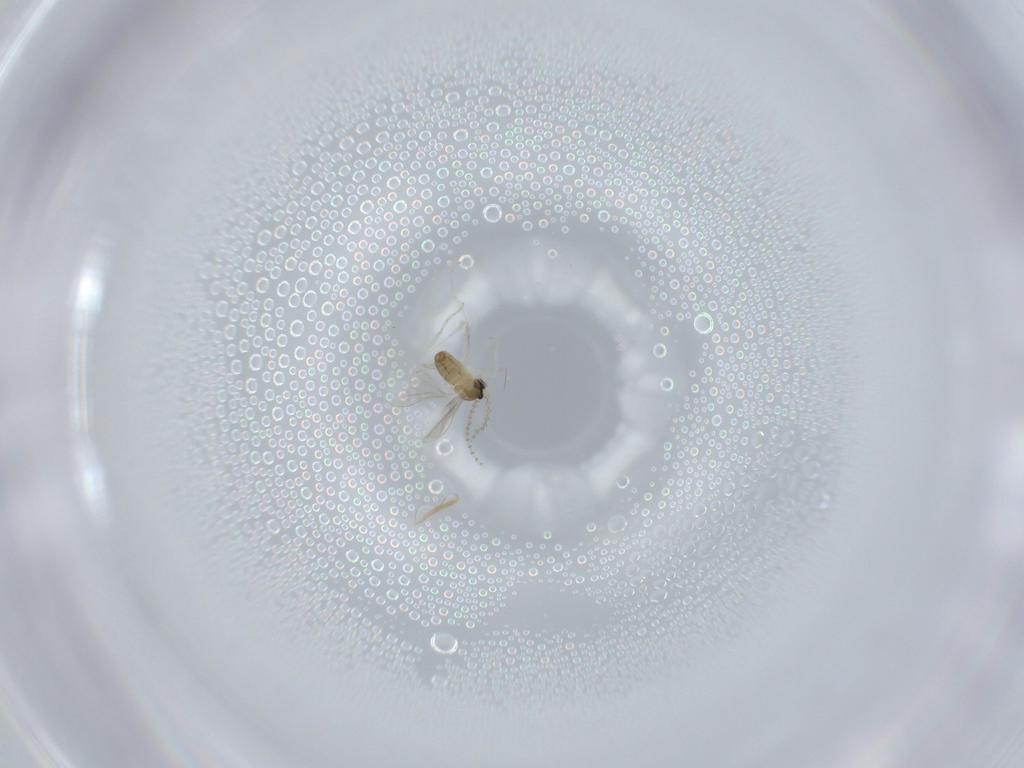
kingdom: Animalia
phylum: Arthropoda
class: Insecta
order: Diptera
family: Cecidomyiidae
